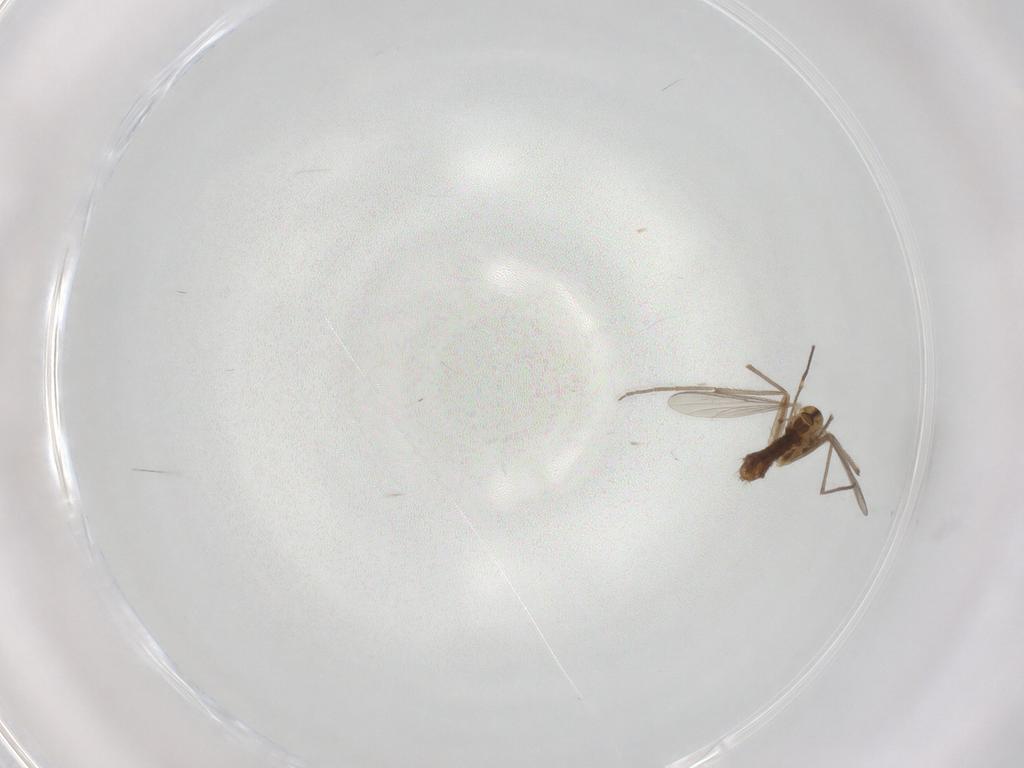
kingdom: Animalia
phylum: Arthropoda
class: Insecta
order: Diptera
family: Chironomidae
